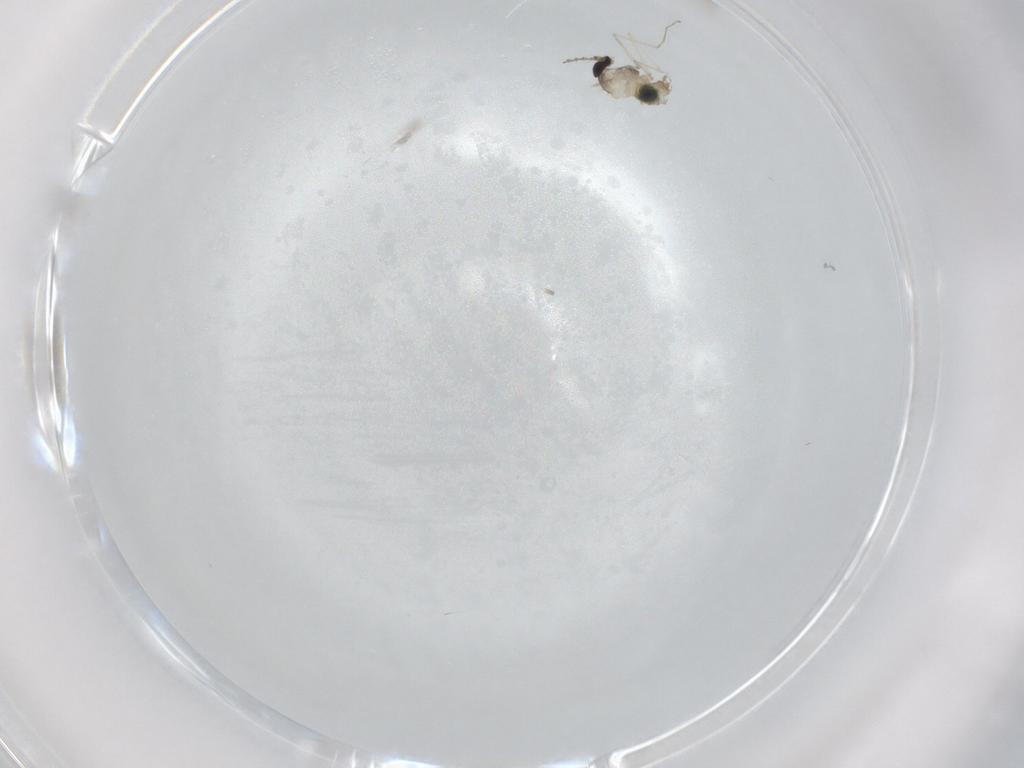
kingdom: Animalia
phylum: Arthropoda
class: Insecta
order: Diptera
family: Cecidomyiidae
